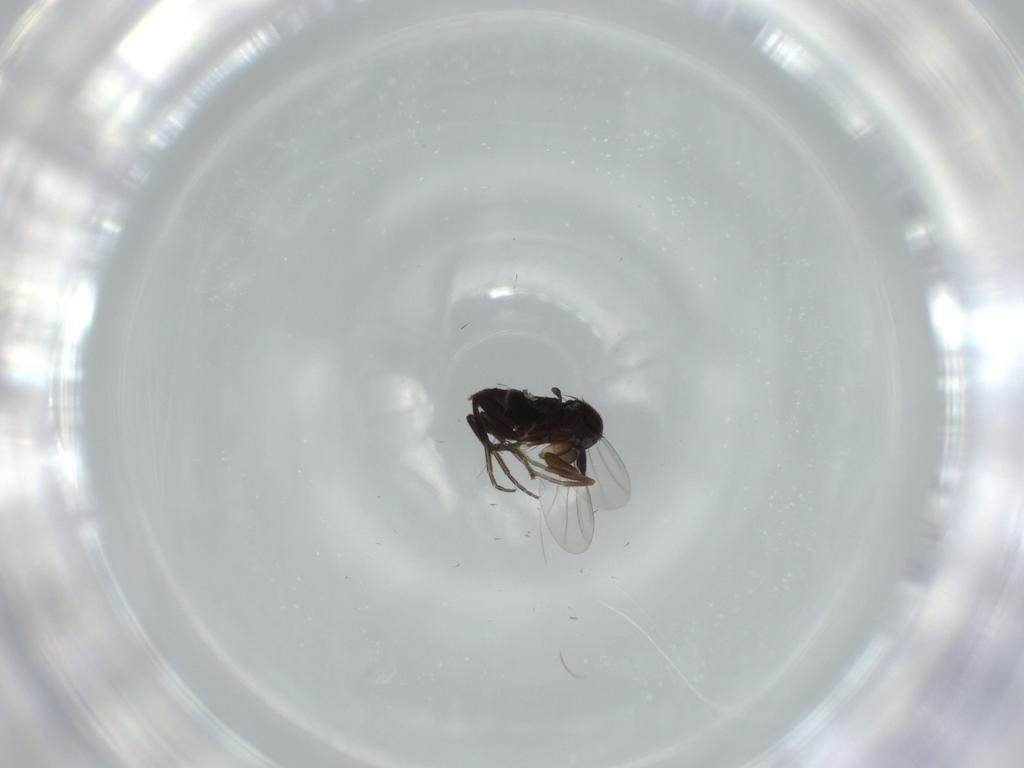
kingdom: Animalia
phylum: Arthropoda
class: Insecta
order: Diptera
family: Phoridae
